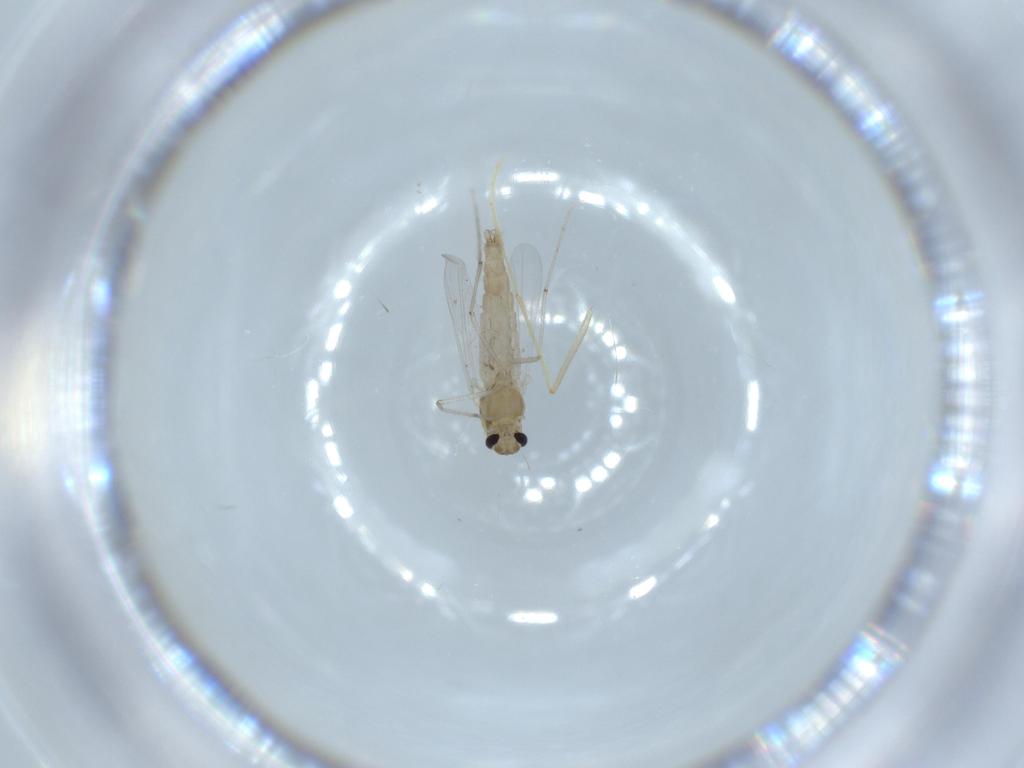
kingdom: Animalia
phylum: Arthropoda
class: Insecta
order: Diptera
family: Chironomidae
